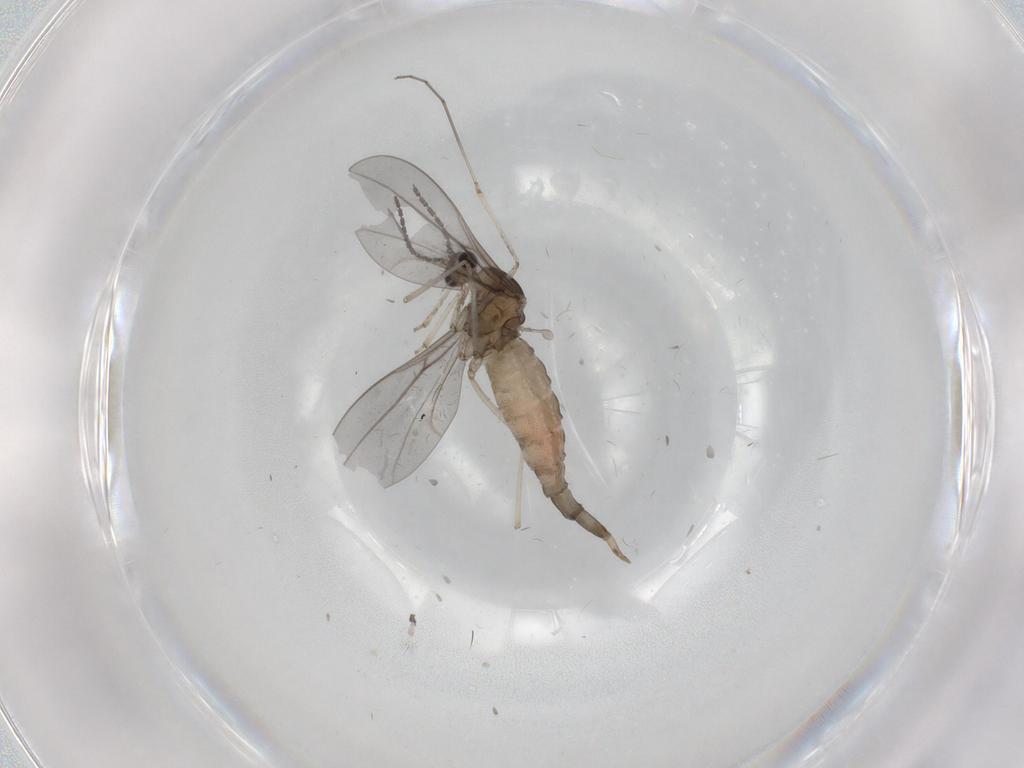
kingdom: Animalia
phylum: Arthropoda
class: Insecta
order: Diptera
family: Cecidomyiidae
